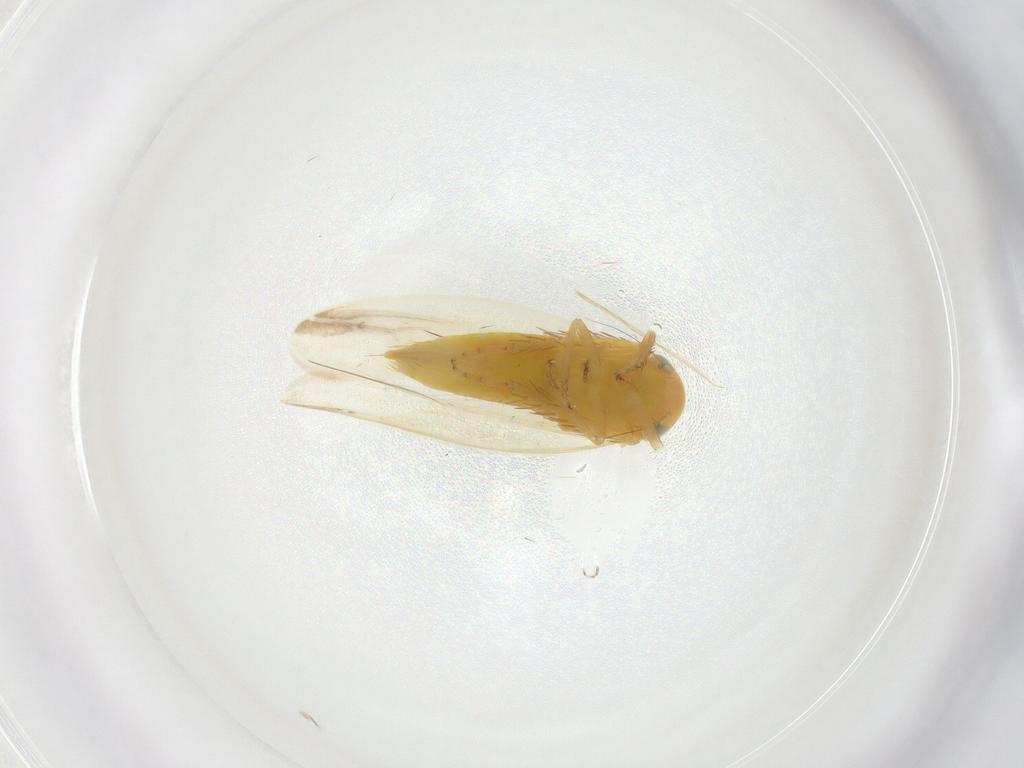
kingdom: Animalia
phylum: Arthropoda
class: Insecta
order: Hemiptera
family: Cicadellidae
